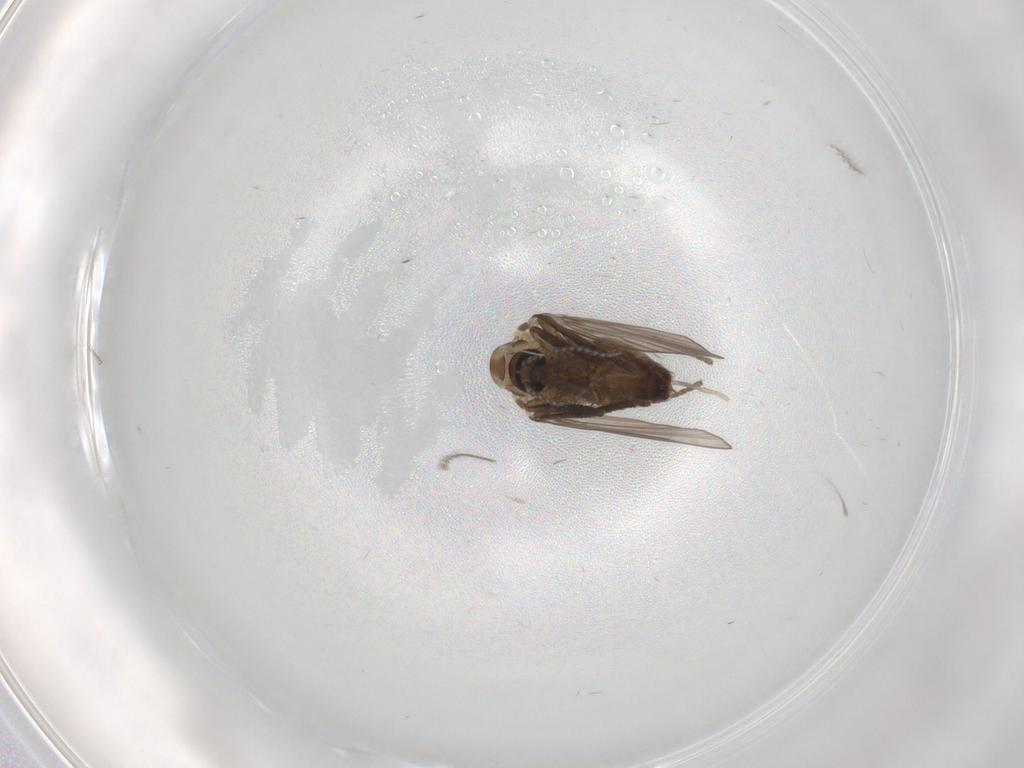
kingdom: Animalia
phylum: Arthropoda
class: Insecta
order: Diptera
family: Psychodidae
